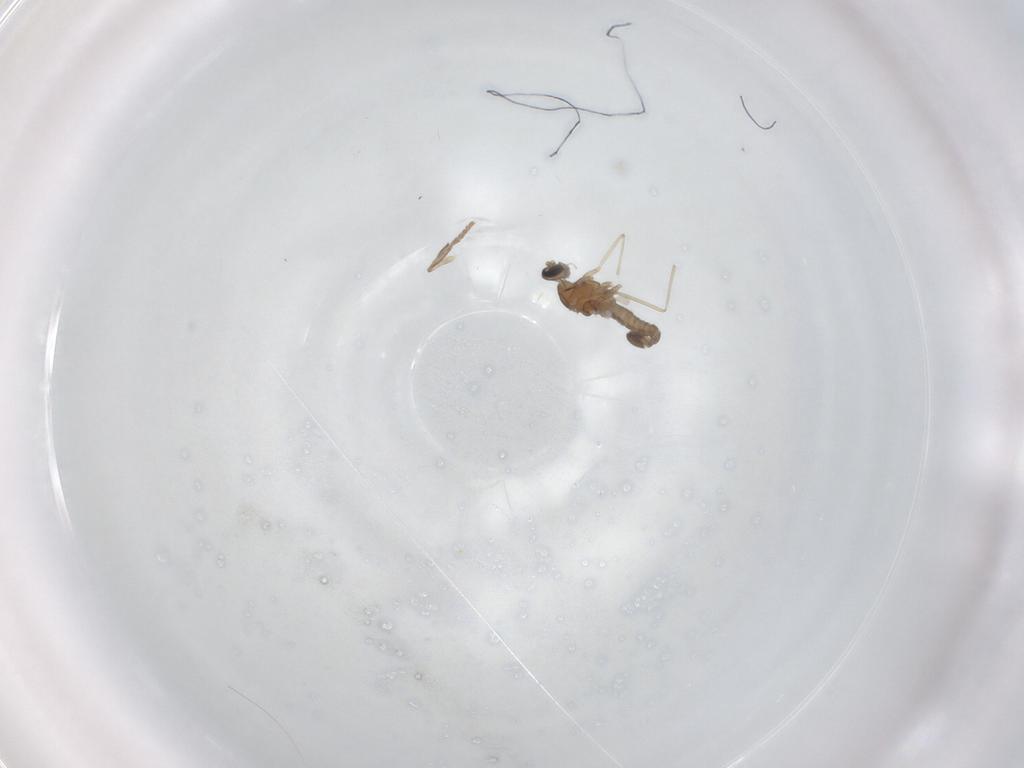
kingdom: Animalia
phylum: Arthropoda
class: Insecta
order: Diptera
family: Psychodidae
